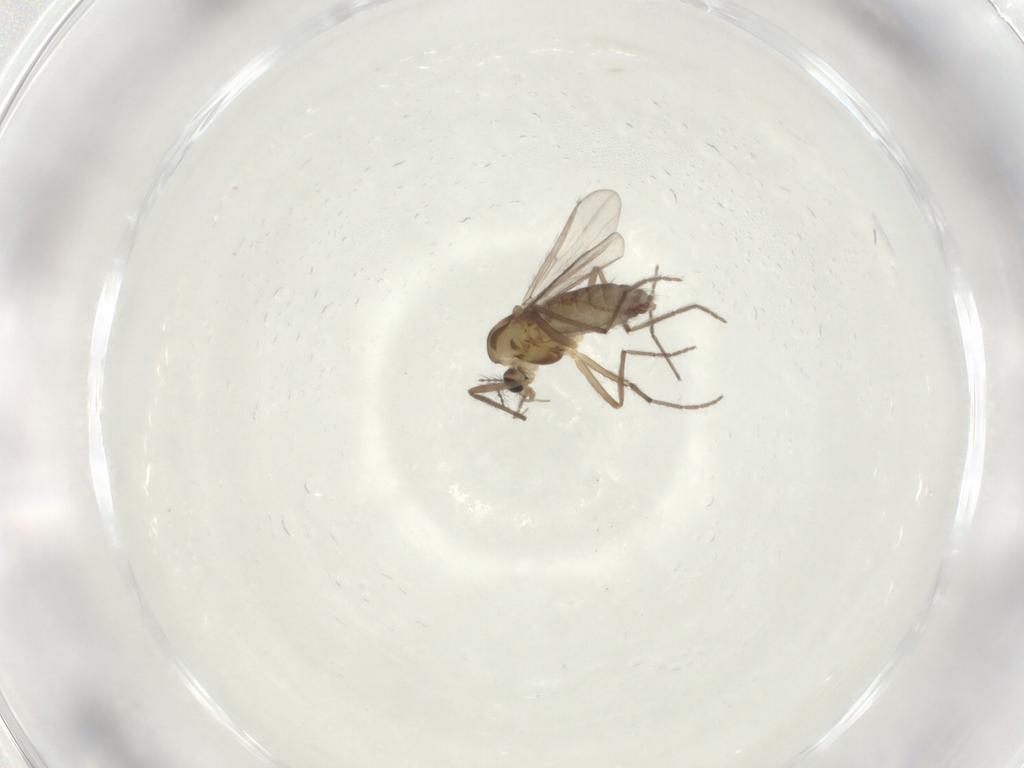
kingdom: Animalia
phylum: Arthropoda
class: Insecta
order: Diptera
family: Chironomidae
